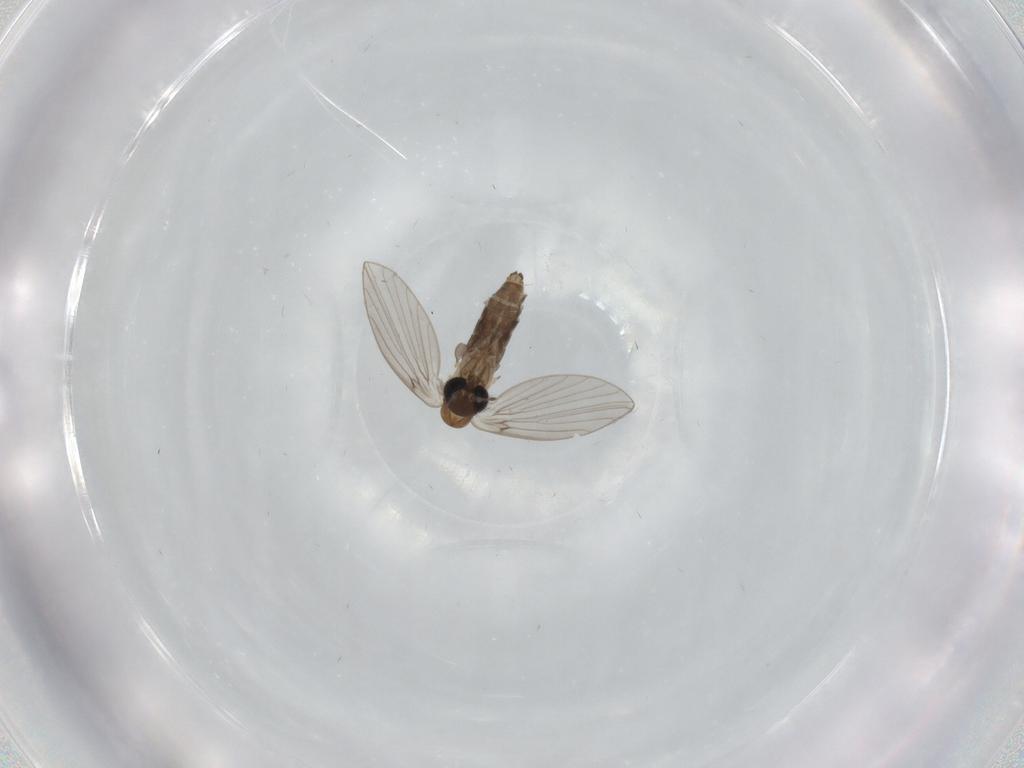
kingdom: Animalia
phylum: Arthropoda
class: Insecta
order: Diptera
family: Psychodidae
